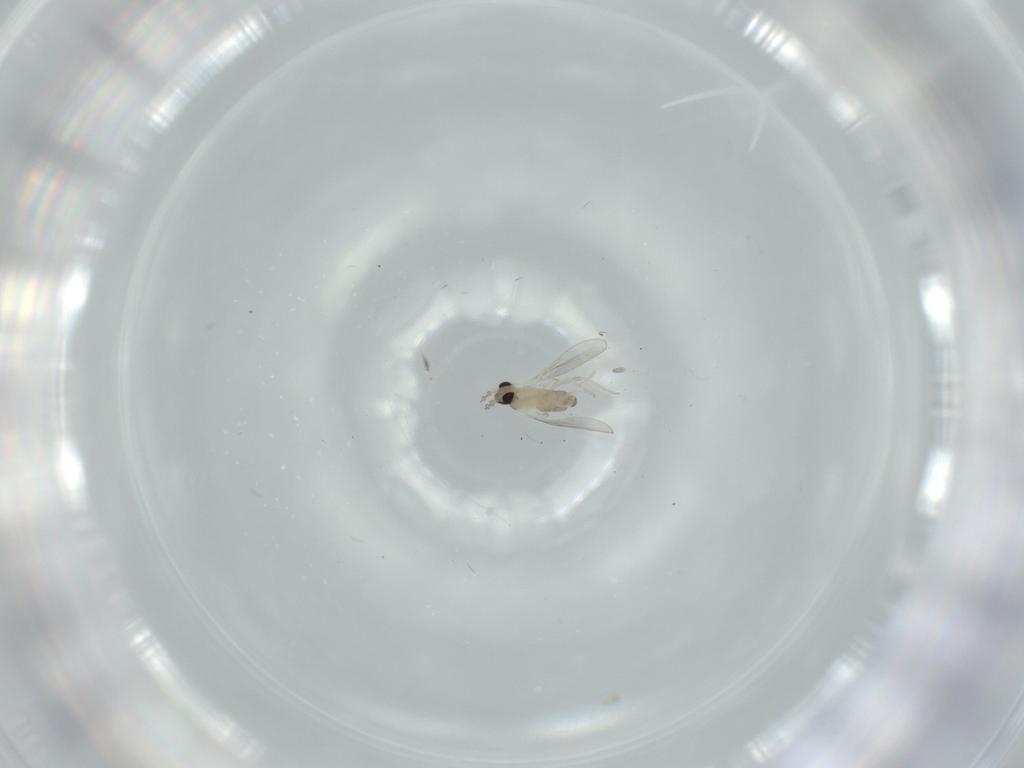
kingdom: Animalia
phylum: Arthropoda
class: Insecta
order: Diptera
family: Cecidomyiidae
